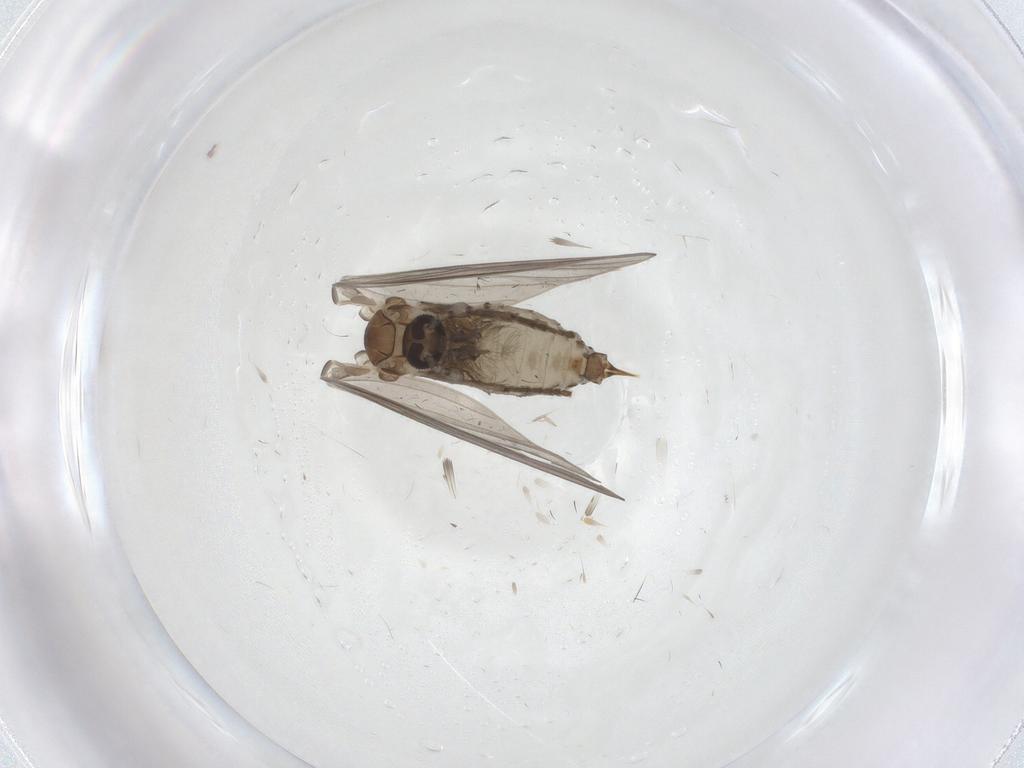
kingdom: Animalia
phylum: Arthropoda
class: Insecta
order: Diptera
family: Psychodidae
